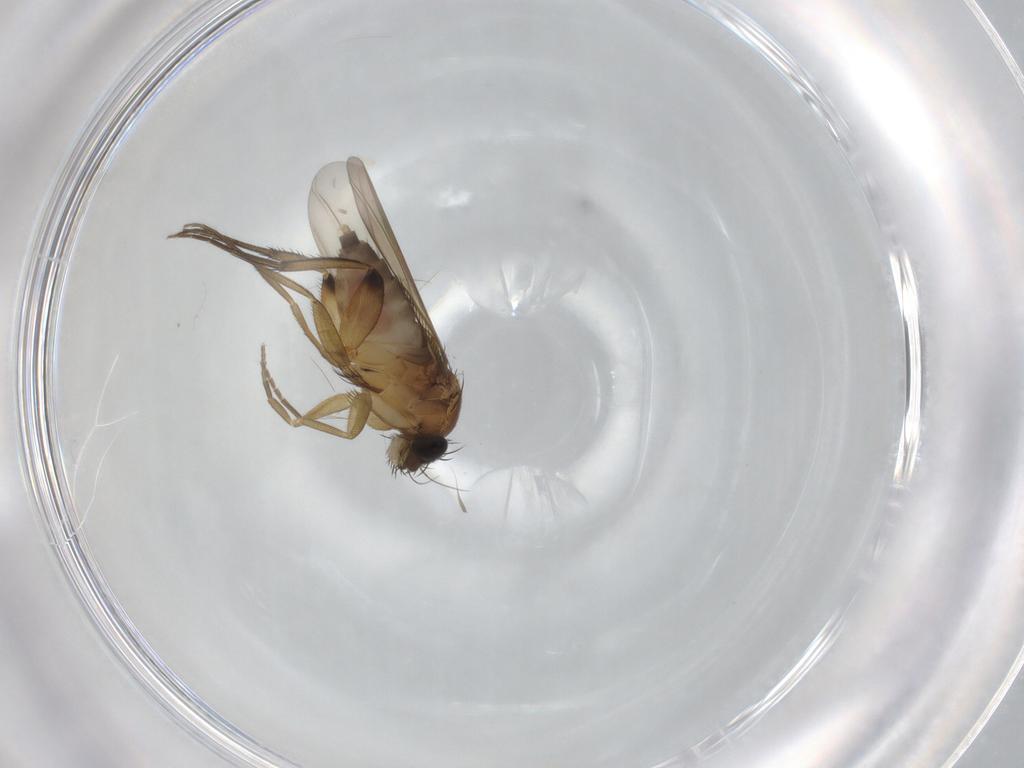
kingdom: Animalia
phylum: Arthropoda
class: Insecta
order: Diptera
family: Phoridae
